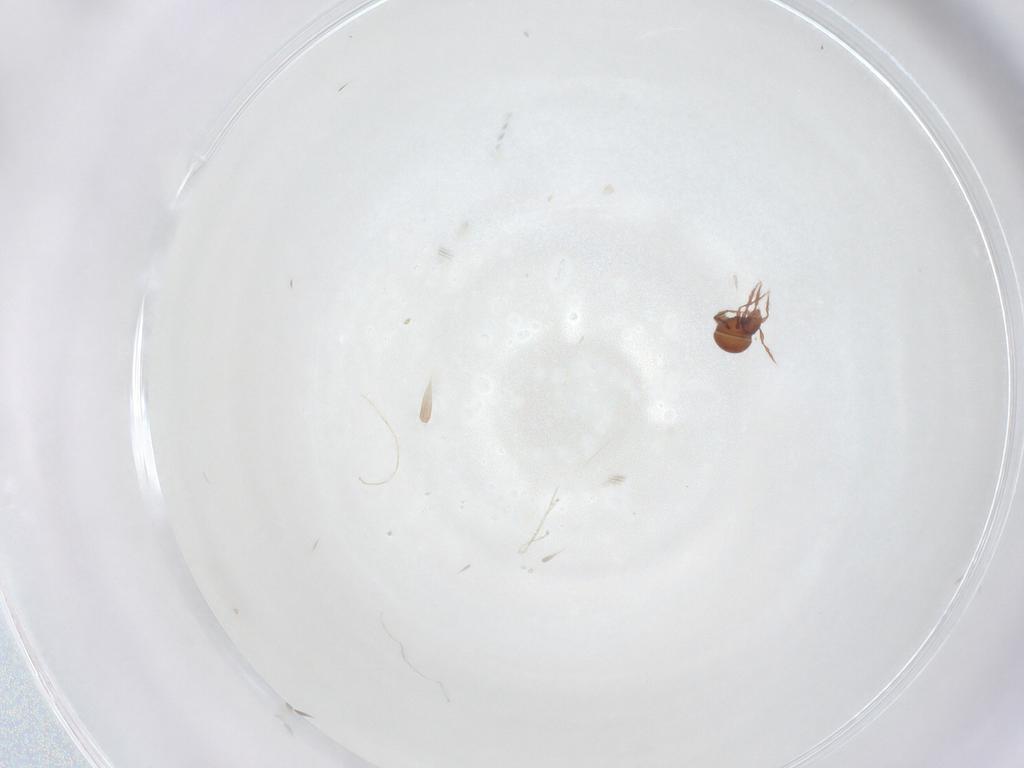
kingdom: Animalia
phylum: Arthropoda
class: Arachnida
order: Sarcoptiformes
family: Oppiidae
